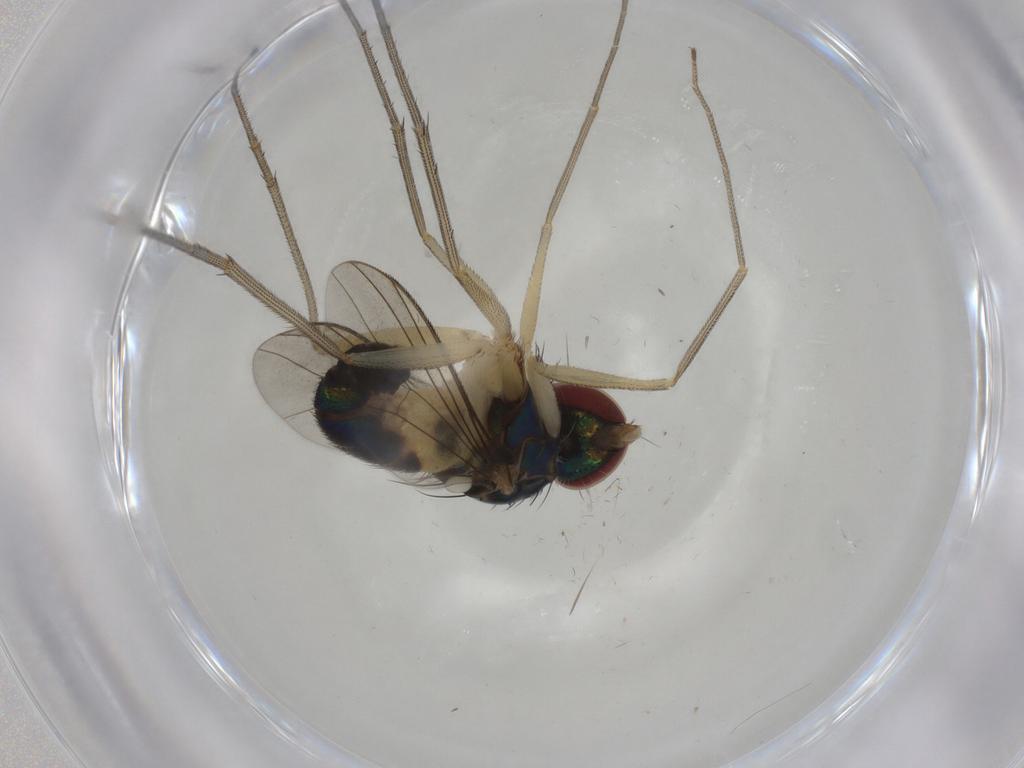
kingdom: Animalia
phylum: Arthropoda
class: Insecta
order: Diptera
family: Dolichopodidae
